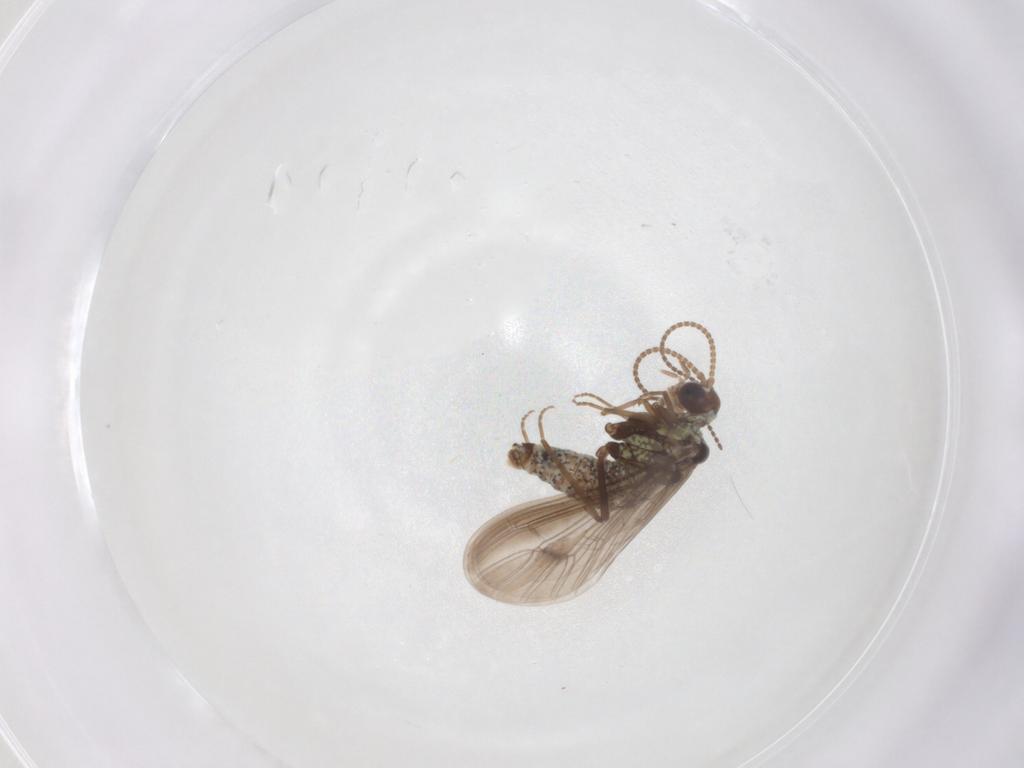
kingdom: Animalia
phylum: Arthropoda
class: Insecta
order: Neuroptera
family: Coniopterygidae
